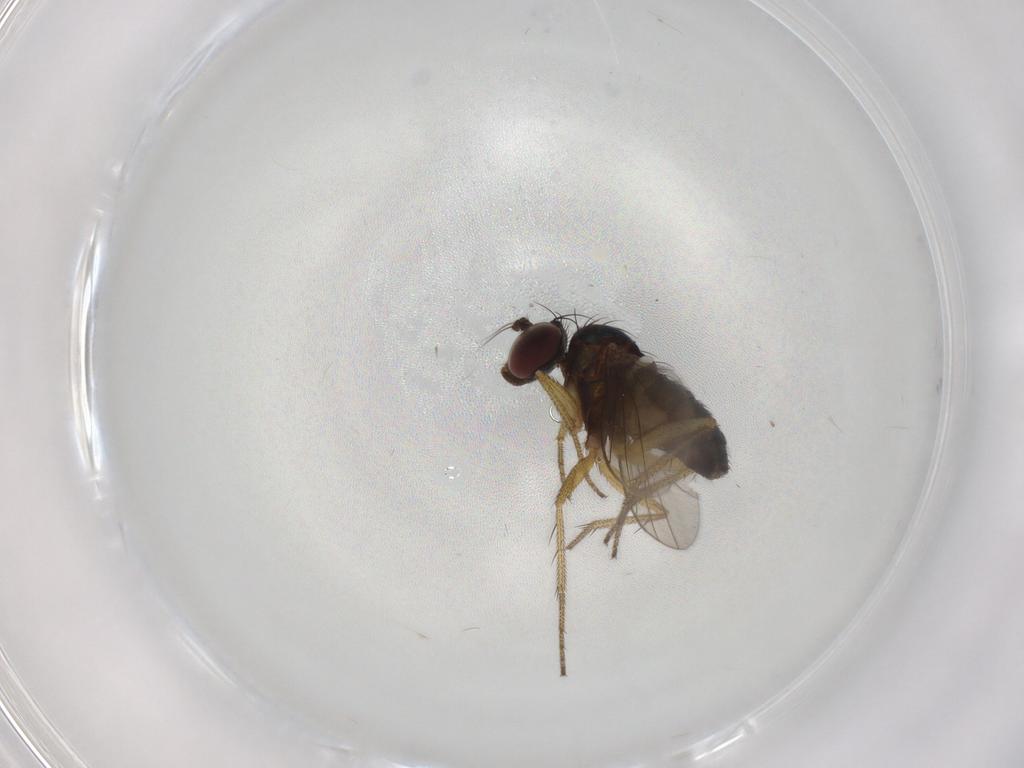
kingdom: Animalia
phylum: Arthropoda
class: Insecta
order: Diptera
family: Dolichopodidae
